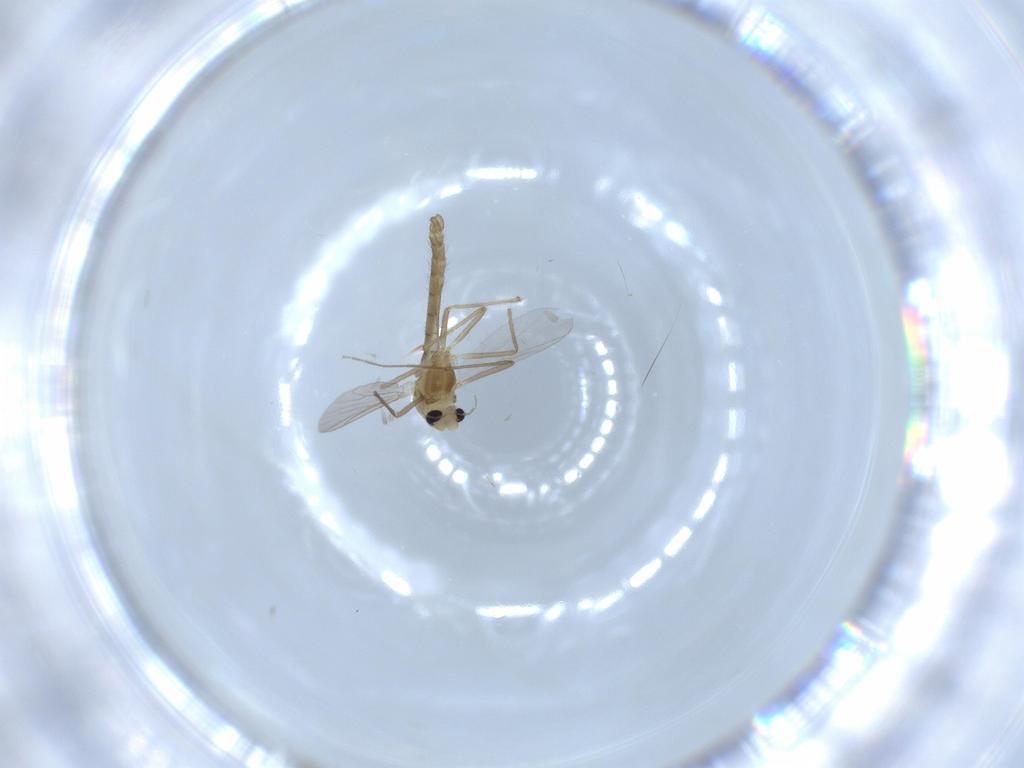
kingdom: Animalia
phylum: Arthropoda
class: Insecta
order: Diptera
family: Chironomidae
